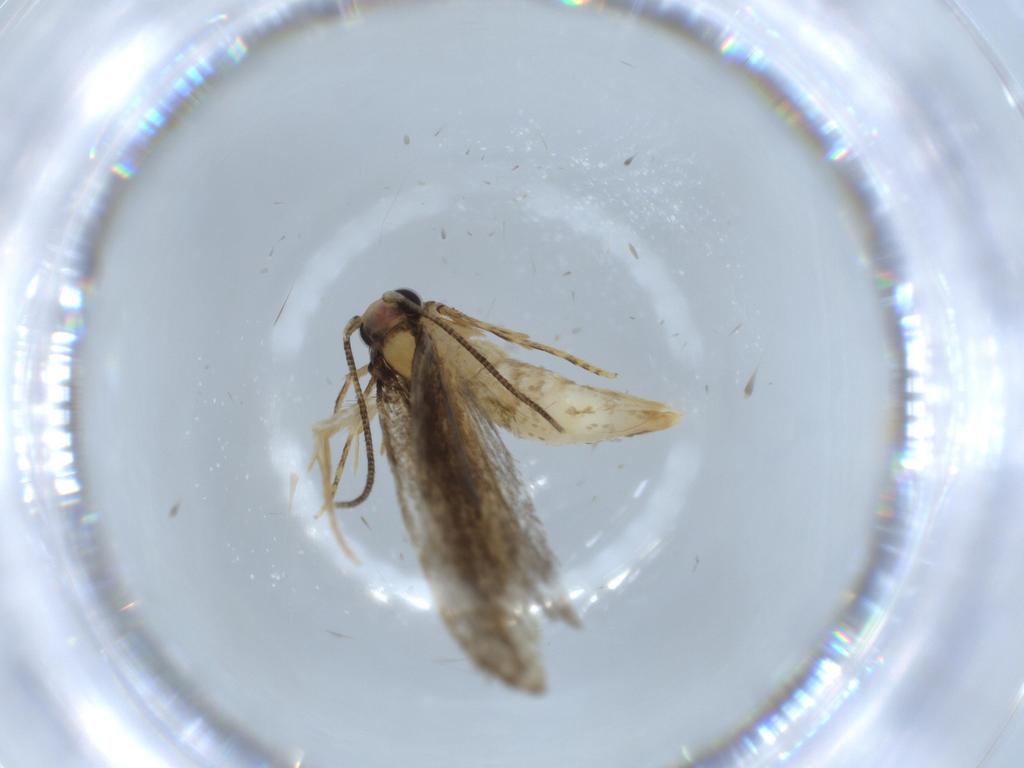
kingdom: Animalia
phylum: Arthropoda
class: Insecta
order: Lepidoptera
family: Tineidae
